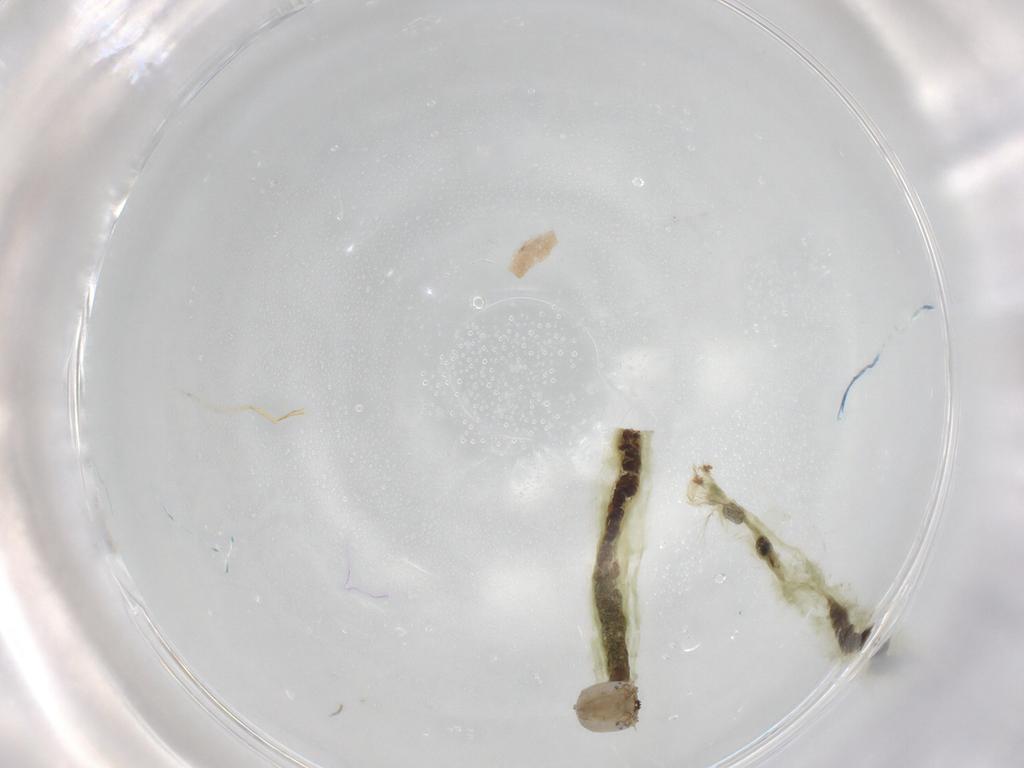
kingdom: Animalia
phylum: Arthropoda
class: Insecta
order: Diptera
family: Chironomidae
